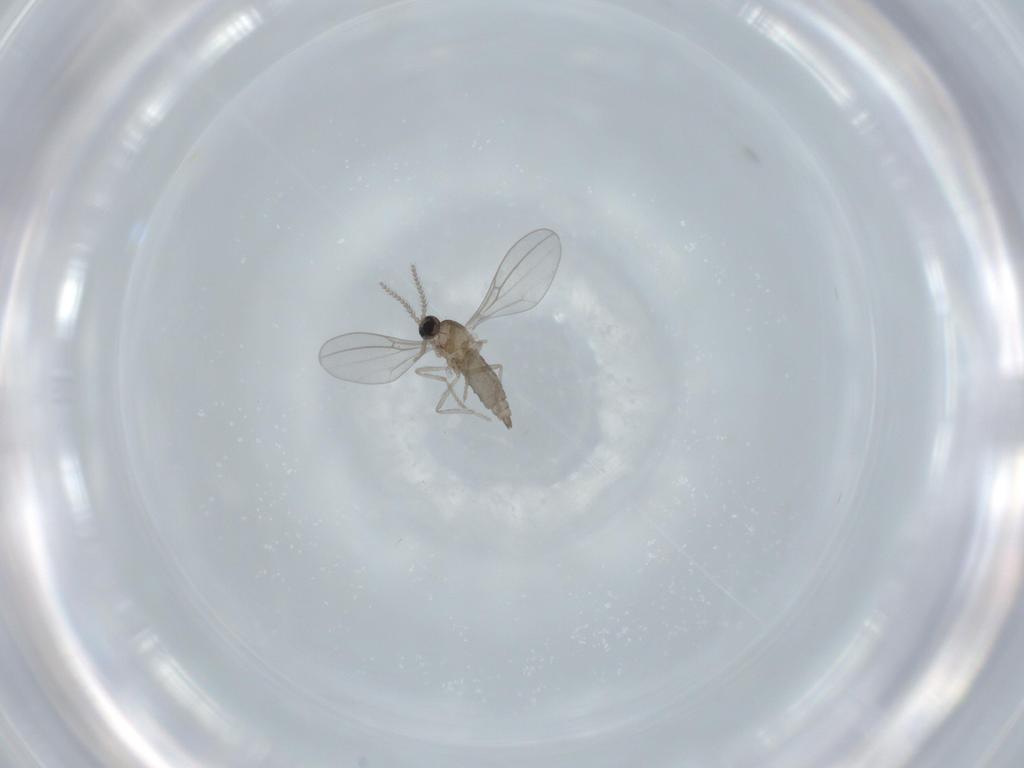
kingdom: Animalia
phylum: Arthropoda
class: Insecta
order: Diptera
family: Cecidomyiidae
